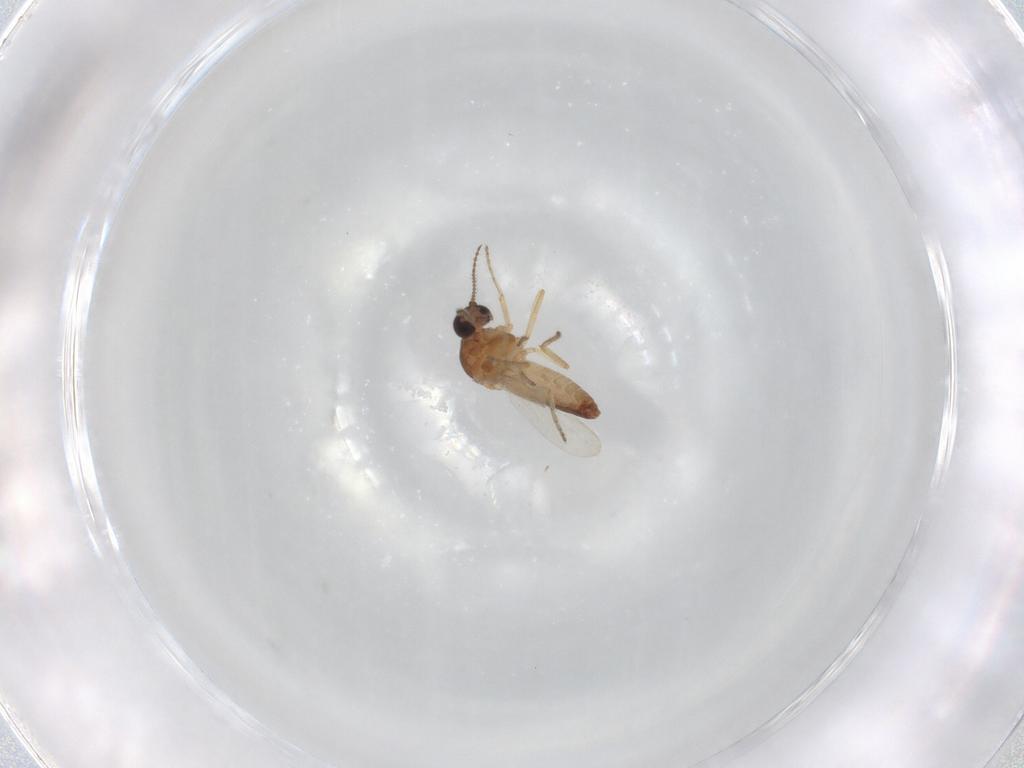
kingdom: Animalia
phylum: Arthropoda
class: Insecta
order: Diptera
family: Ceratopogonidae
